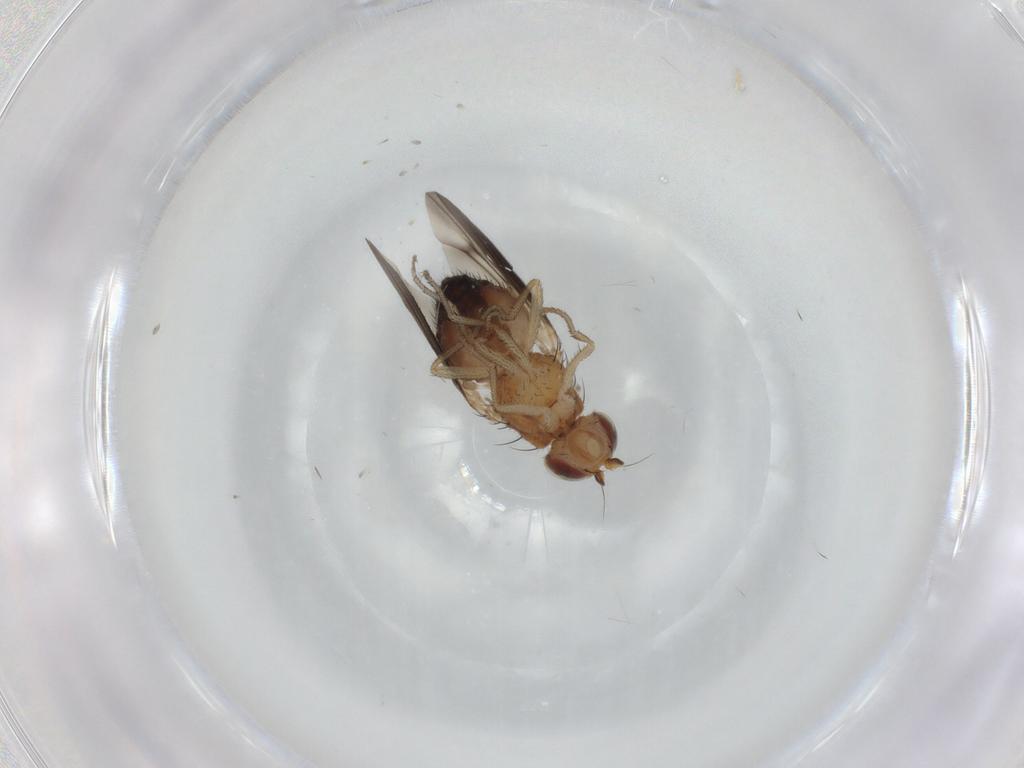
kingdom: Animalia
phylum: Arthropoda
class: Insecta
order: Diptera
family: Heleomyzidae
